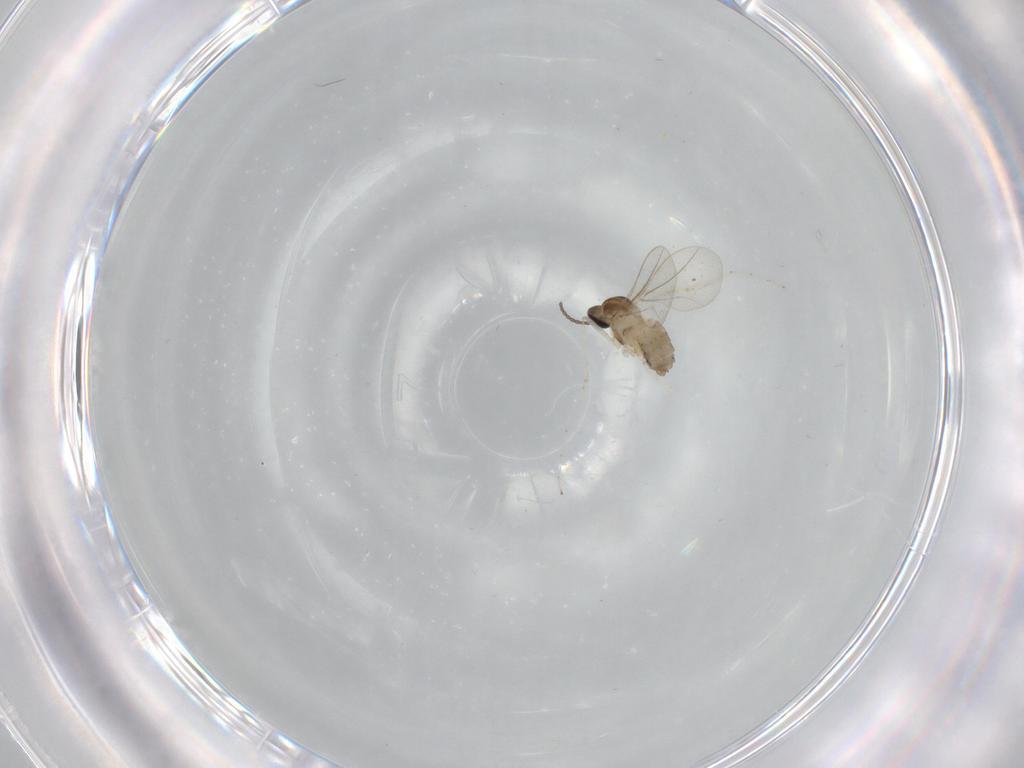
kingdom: Animalia
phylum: Arthropoda
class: Insecta
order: Diptera
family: Cecidomyiidae
